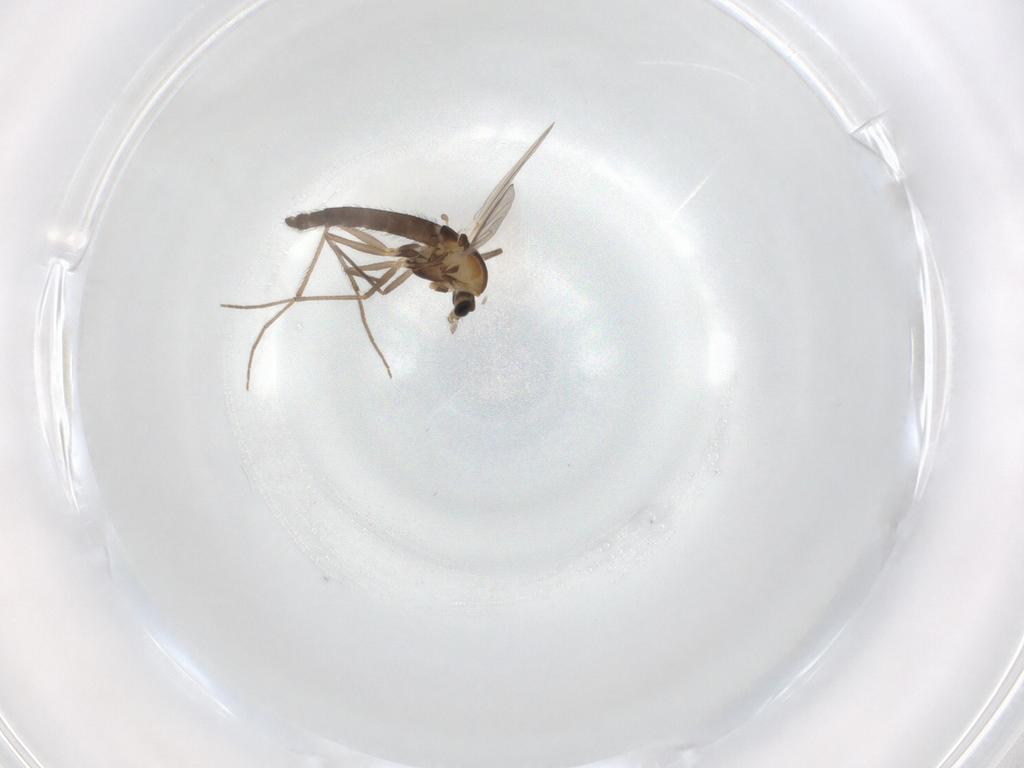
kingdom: Animalia
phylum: Arthropoda
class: Insecta
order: Diptera
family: Chironomidae
